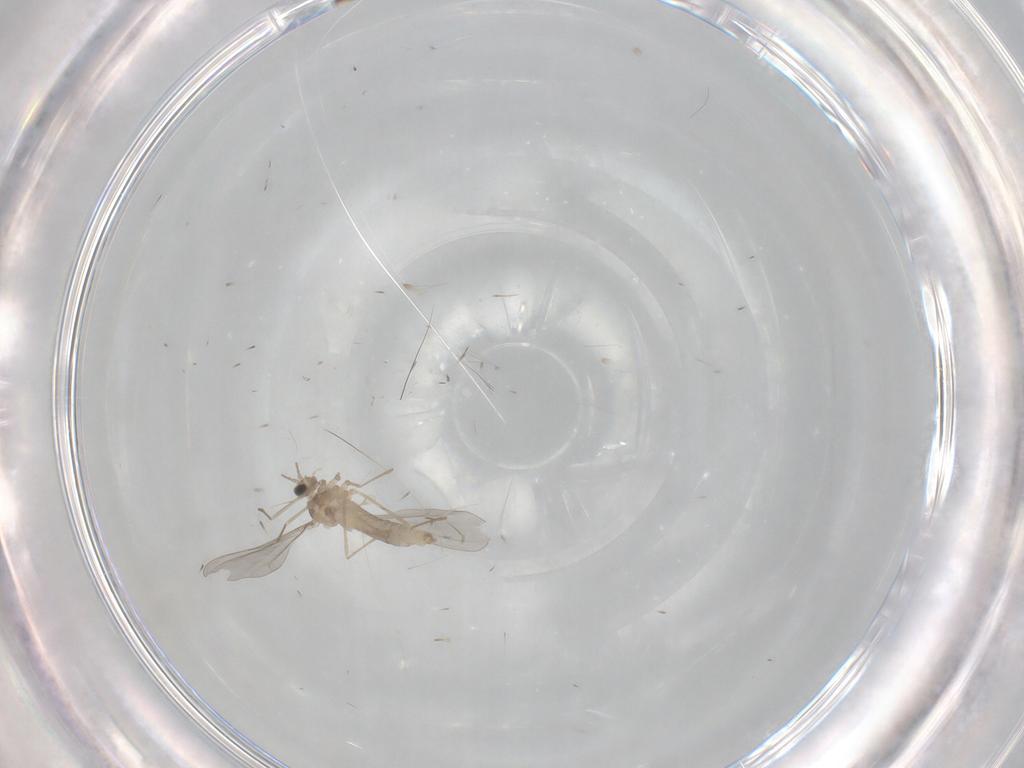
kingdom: Animalia
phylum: Arthropoda
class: Insecta
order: Diptera
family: Cecidomyiidae
